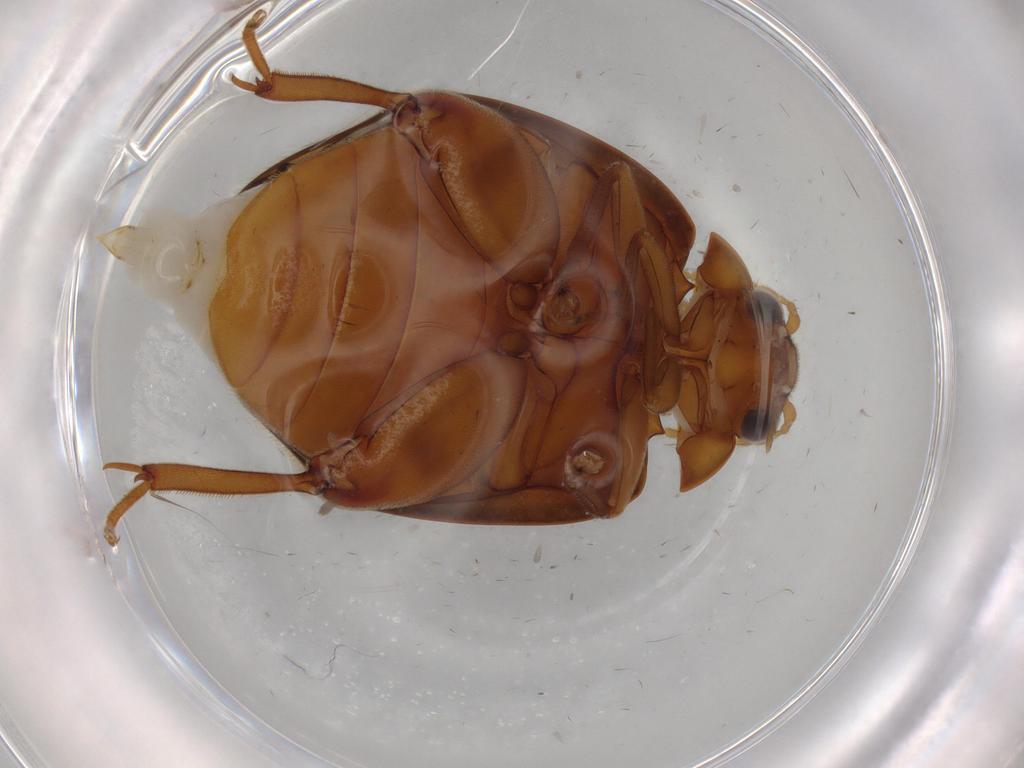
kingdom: Animalia
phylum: Arthropoda
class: Insecta
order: Coleoptera
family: Scirtidae
